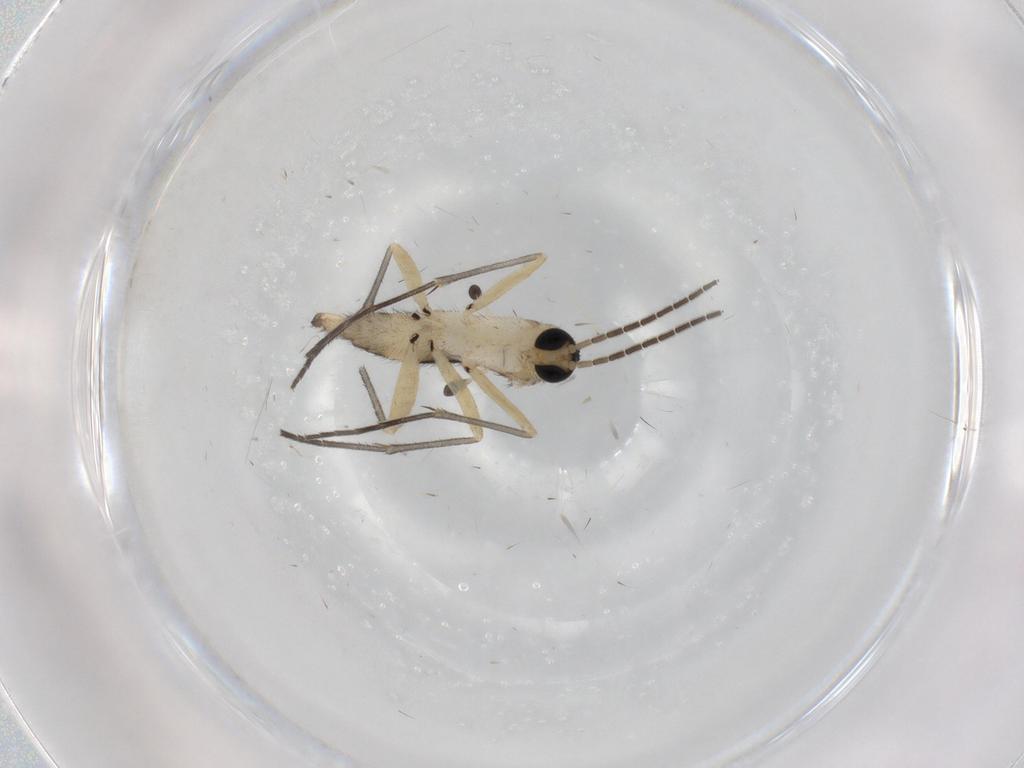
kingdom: Animalia
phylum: Arthropoda
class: Insecta
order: Diptera
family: Sciaridae
